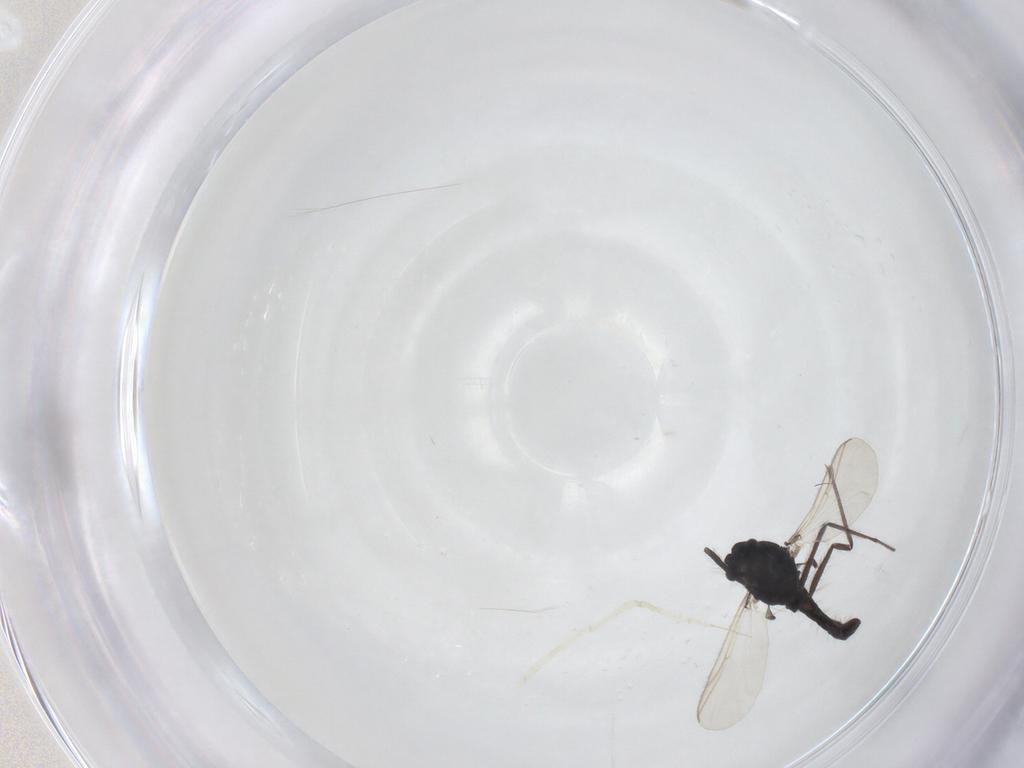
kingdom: Animalia
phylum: Arthropoda
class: Insecta
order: Diptera
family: Chironomidae
